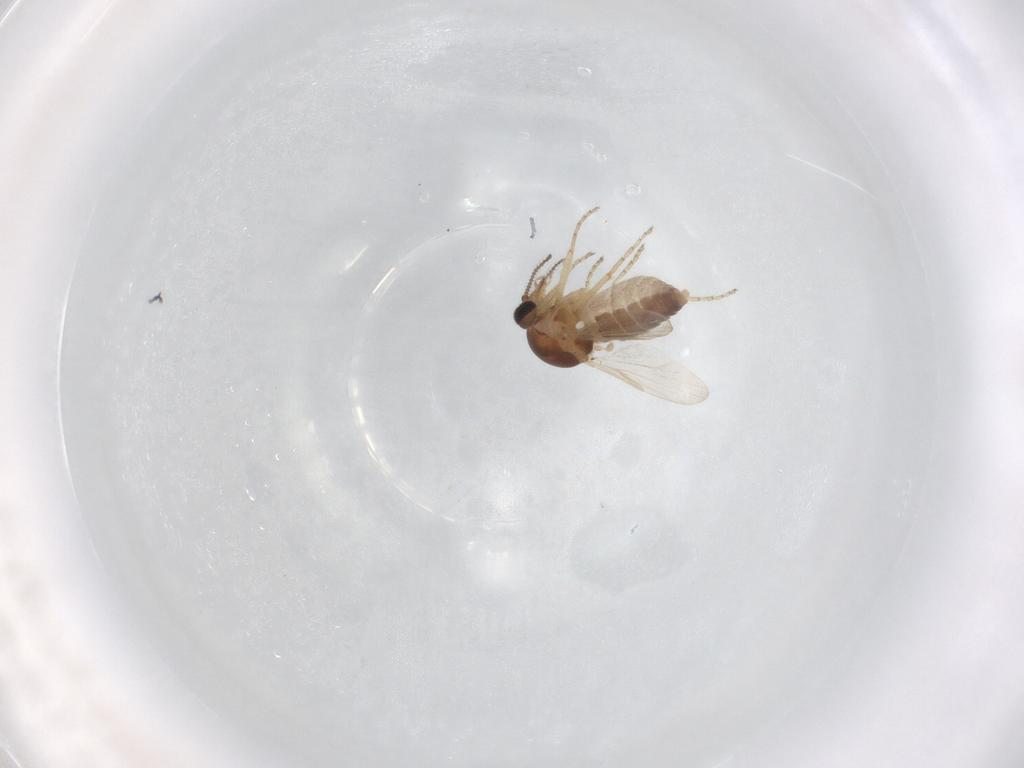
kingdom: Animalia
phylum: Arthropoda
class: Insecta
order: Diptera
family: Ceratopogonidae
